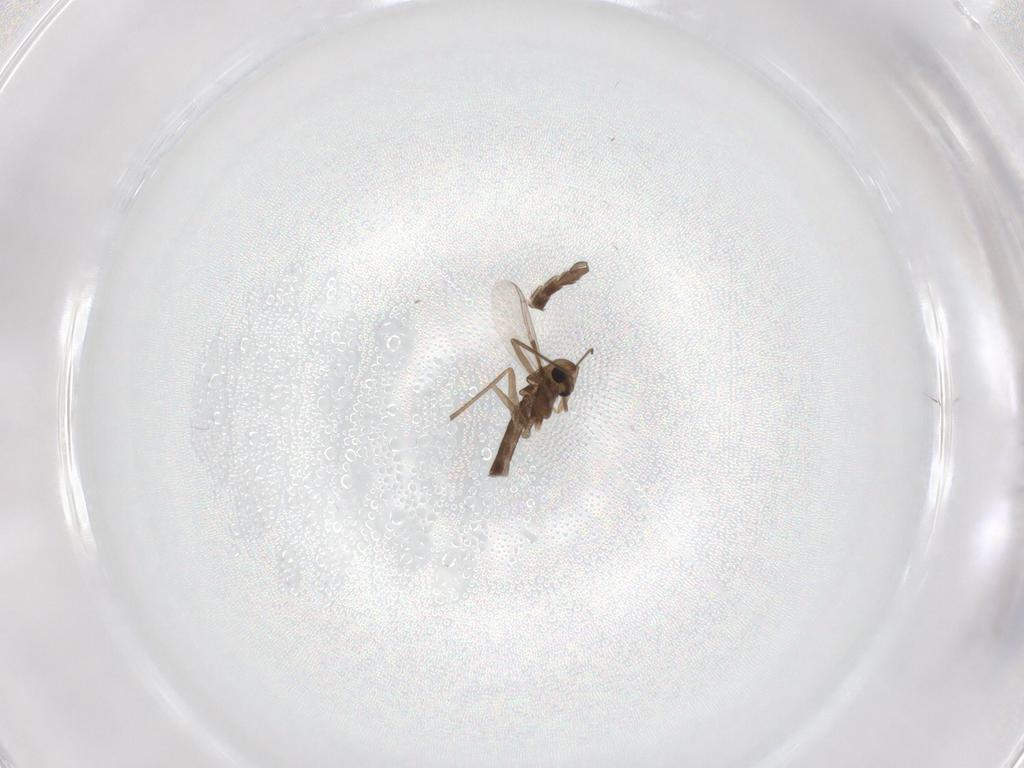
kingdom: Animalia
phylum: Arthropoda
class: Insecta
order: Diptera
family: Chironomidae
